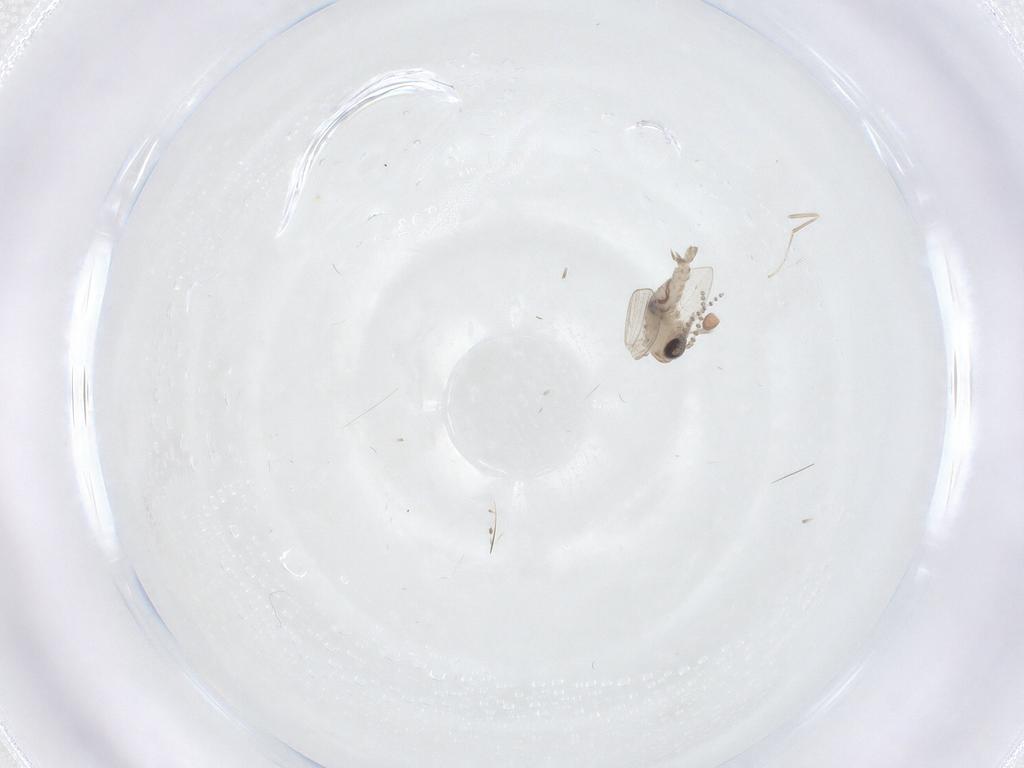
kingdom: Animalia
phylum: Arthropoda
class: Insecta
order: Diptera
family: Psychodidae
